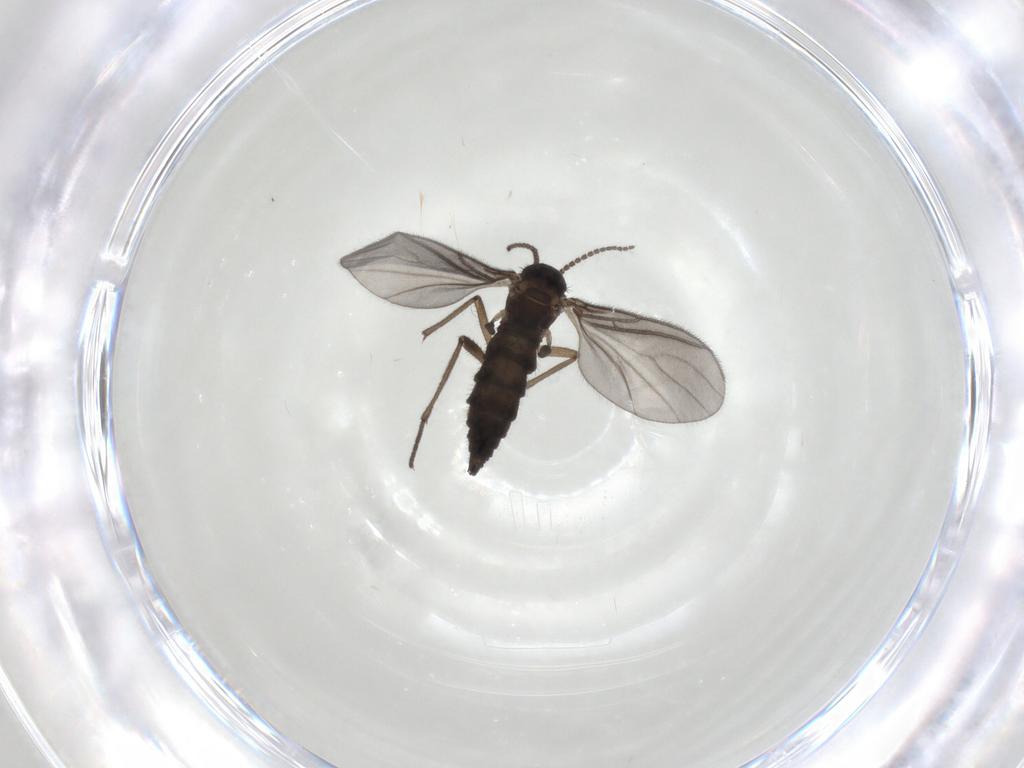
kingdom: Animalia
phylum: Arthropoda
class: Insecta
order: Diptera
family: Sciaridae
